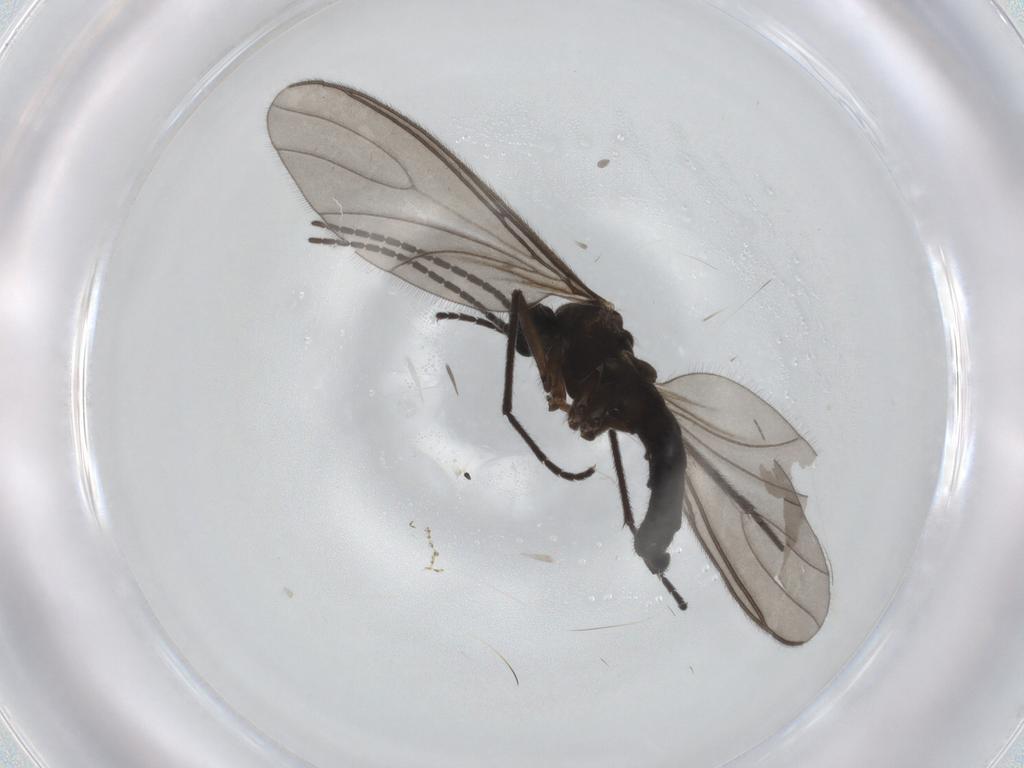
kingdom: Animalia
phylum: Arthropoda
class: Insecta
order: Diptera
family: Sciaridae
